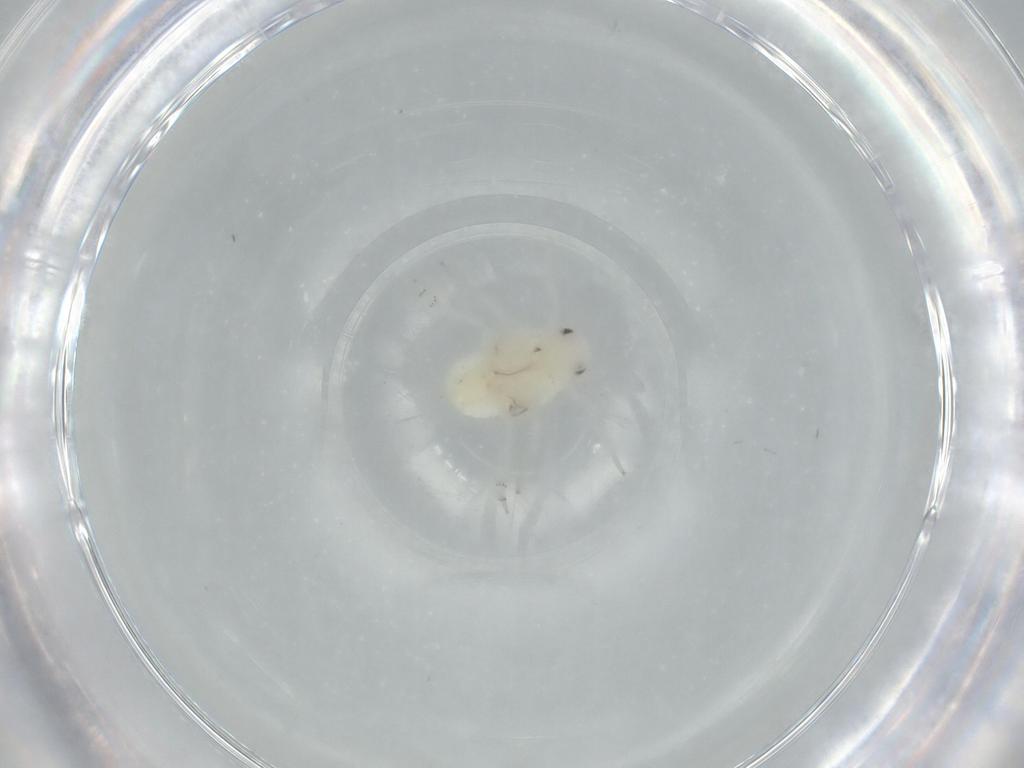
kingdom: Animalia
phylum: Arthropoda
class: Insecta
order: Hemiptera
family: Flatidae
